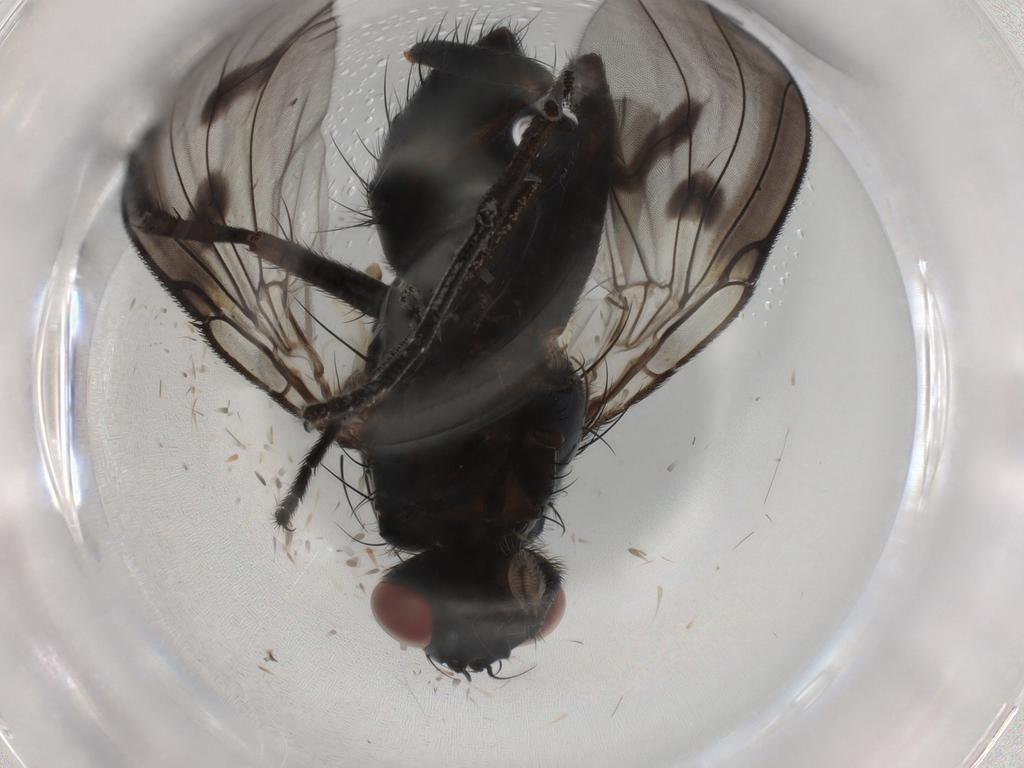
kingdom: Animalia
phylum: Arthropoda
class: Insecta
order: Diptera
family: Muscidae
